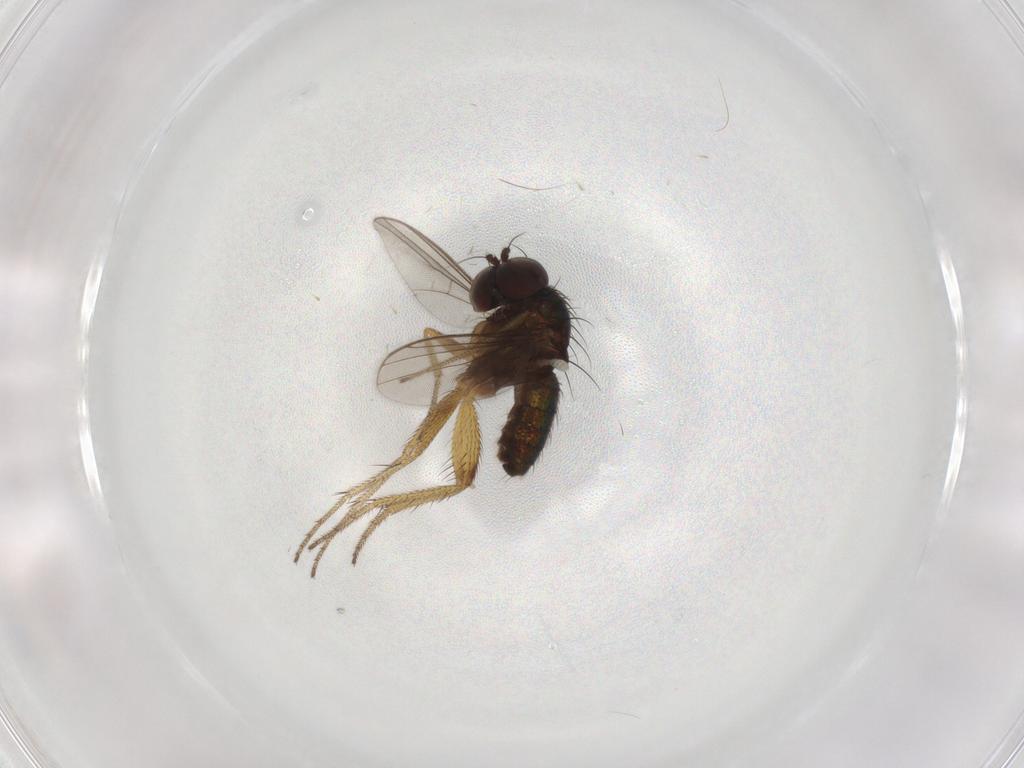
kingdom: Animalia
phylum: Arthropoda
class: Insecta
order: Diptera
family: Dolichopodidae
